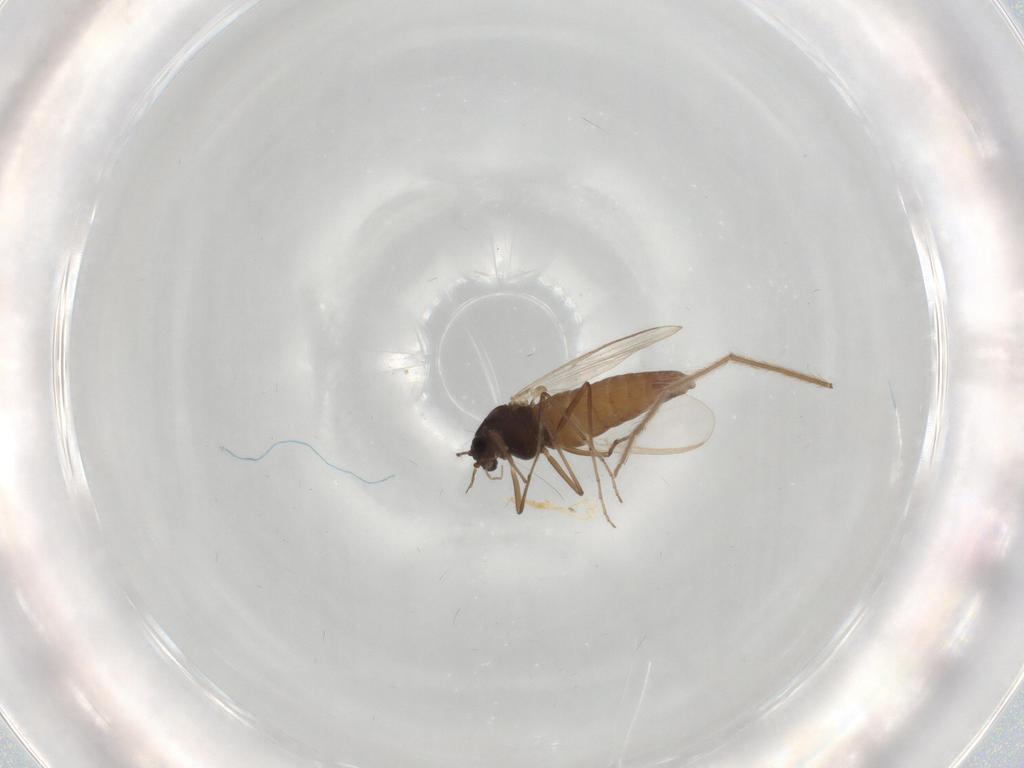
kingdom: Animalia
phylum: Arthropoda
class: Insecta
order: Diptera
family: Chironomidae
